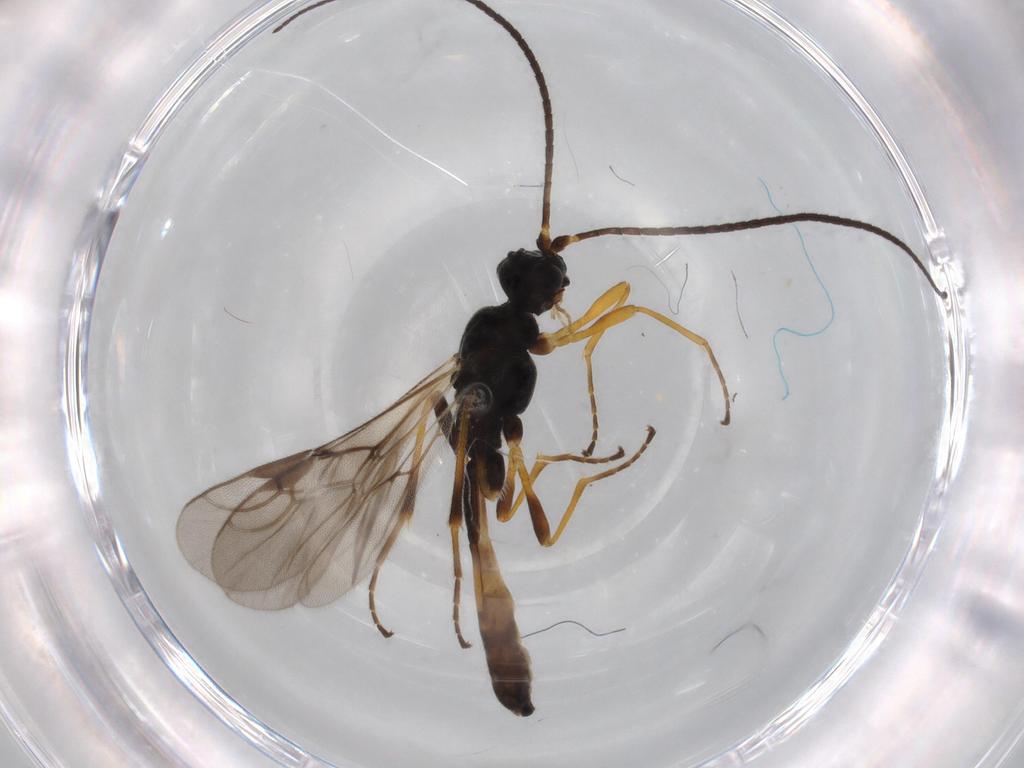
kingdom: Animalia
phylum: Arthropoda
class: Insecta
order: Hymenoptera
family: Braconidae
